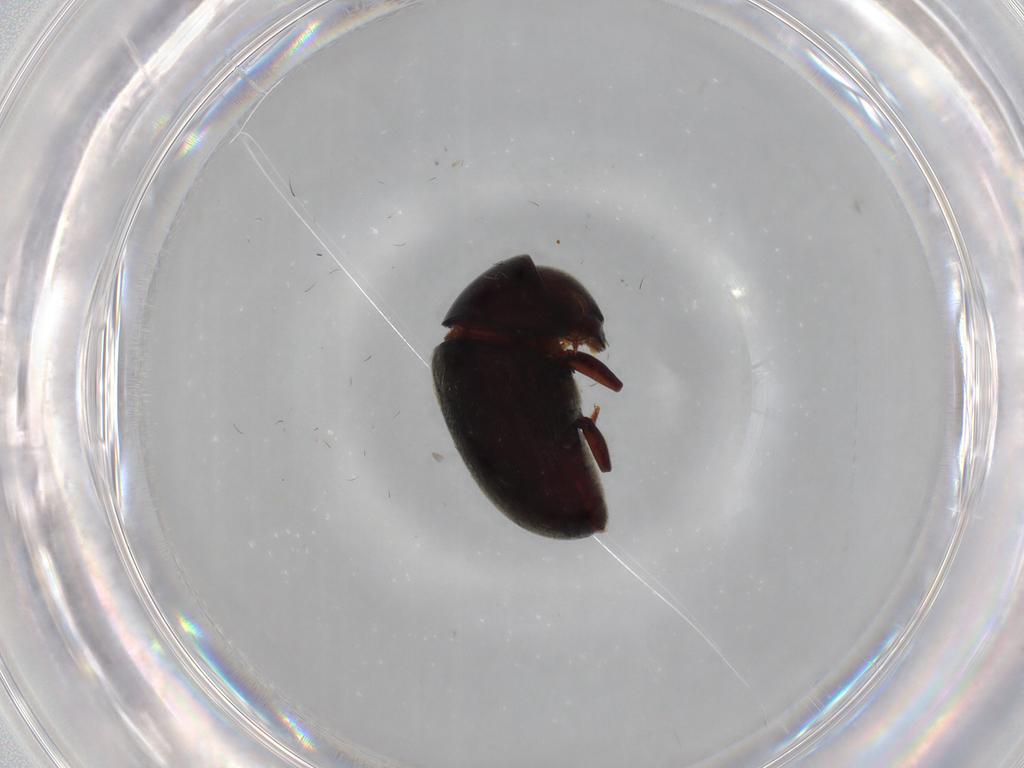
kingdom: Animalia
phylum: Arthropoda
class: Insecta
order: Coleoptera
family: Ptinidae
